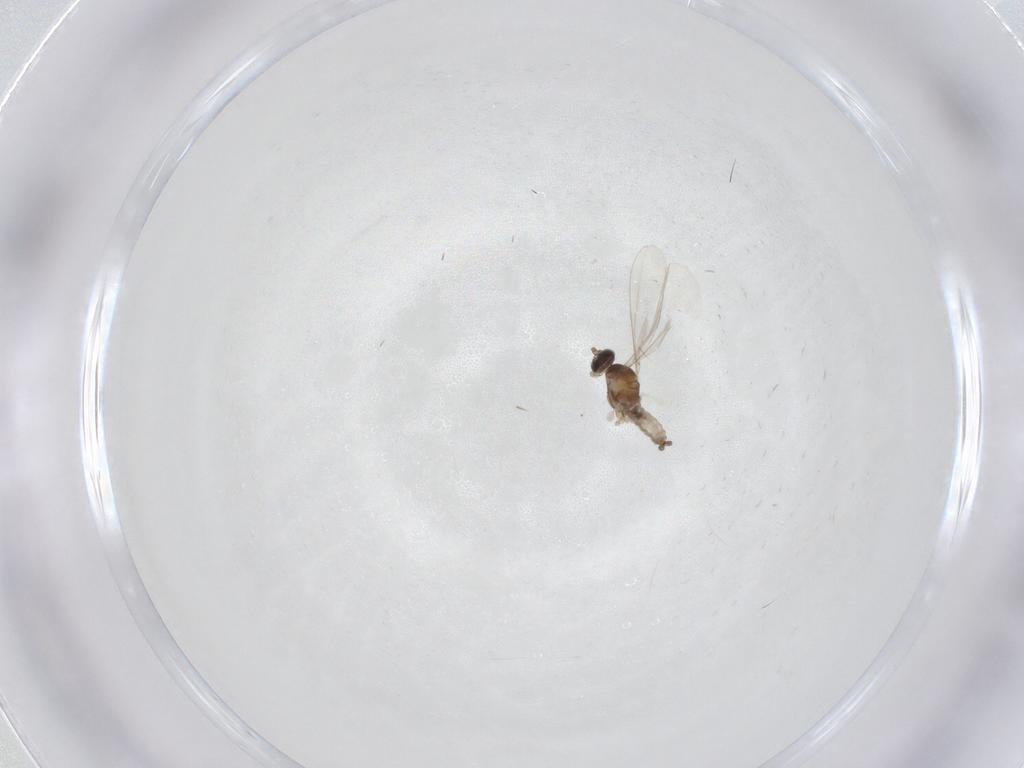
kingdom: Animalia
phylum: Arthropoda
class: Insecta
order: Diptera
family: Cecidomyiidae
